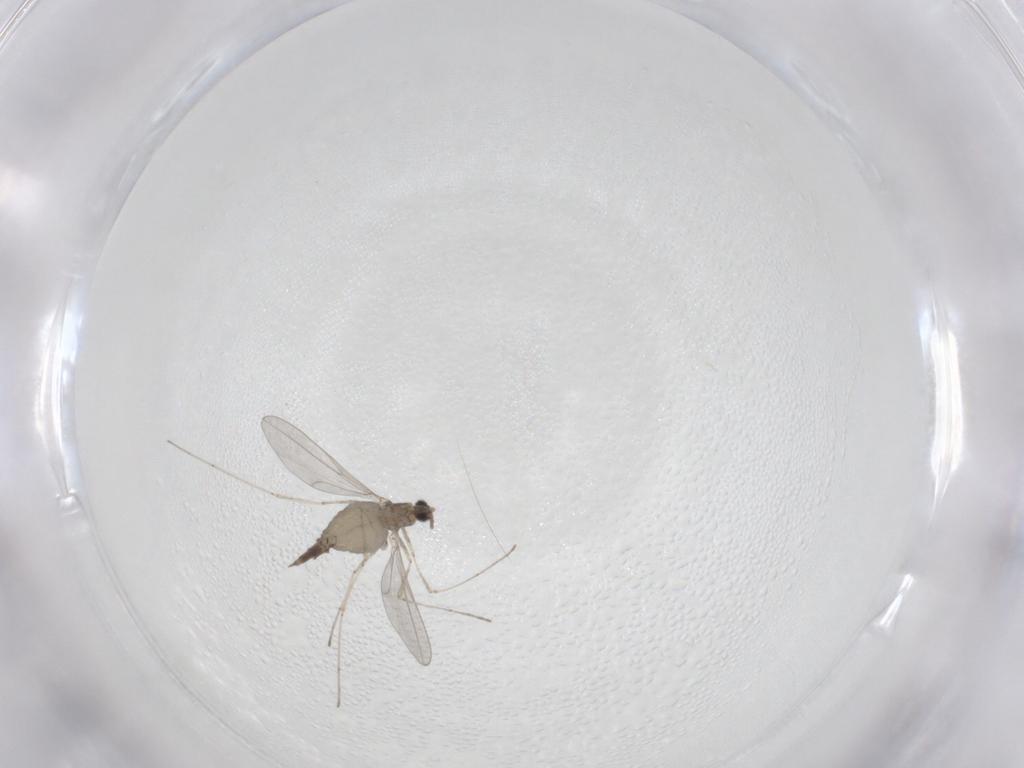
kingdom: Animalia
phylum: Arthropoda
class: Insecta
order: Diptera
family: Cecidomyiidae
